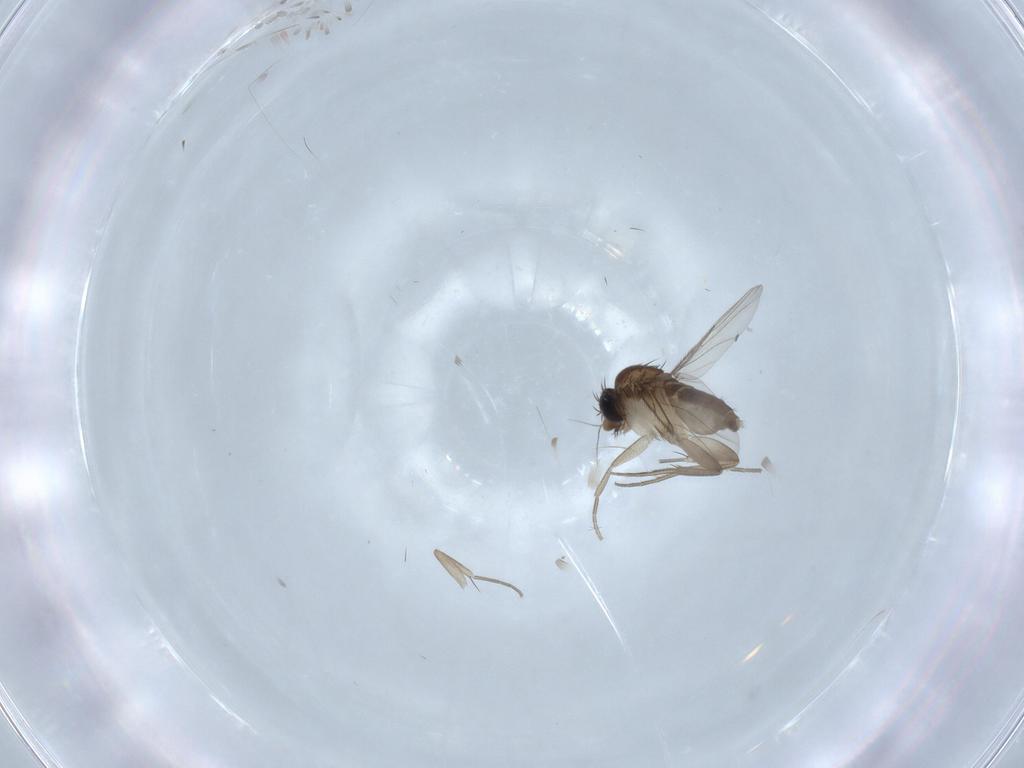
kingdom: Animalia
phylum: Arthropoda
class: Insecta
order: Diptera
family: Phoridae
